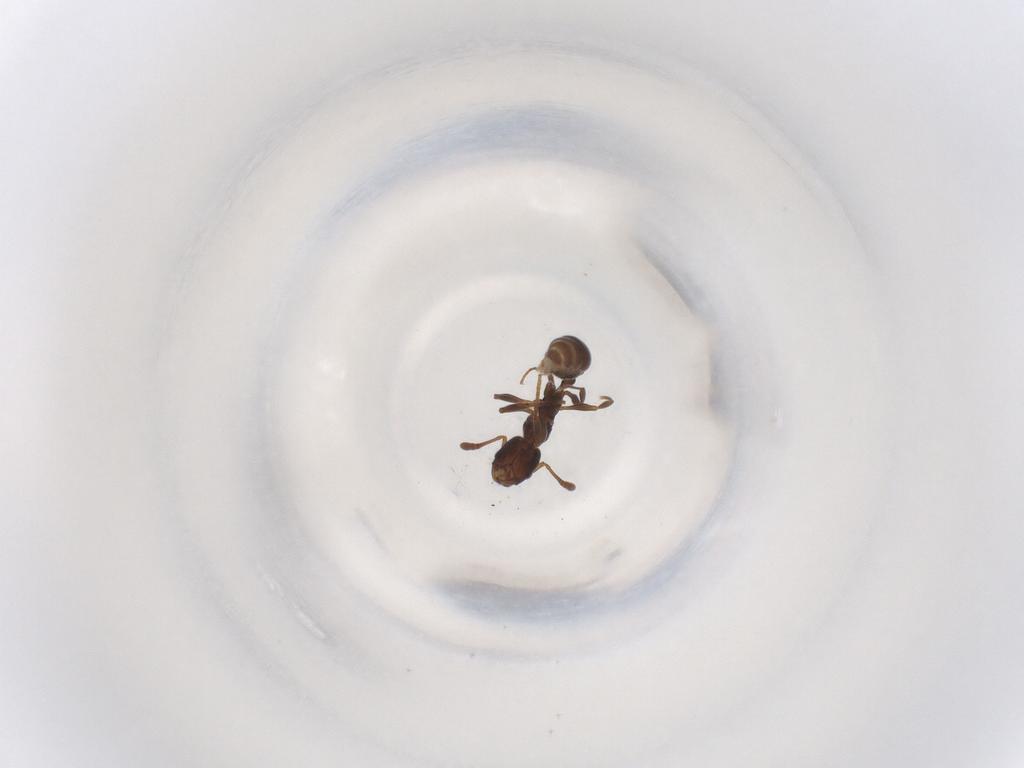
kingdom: Animalia
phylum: Arthropoda
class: Insecta
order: Hymenoptera
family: Formicidae
